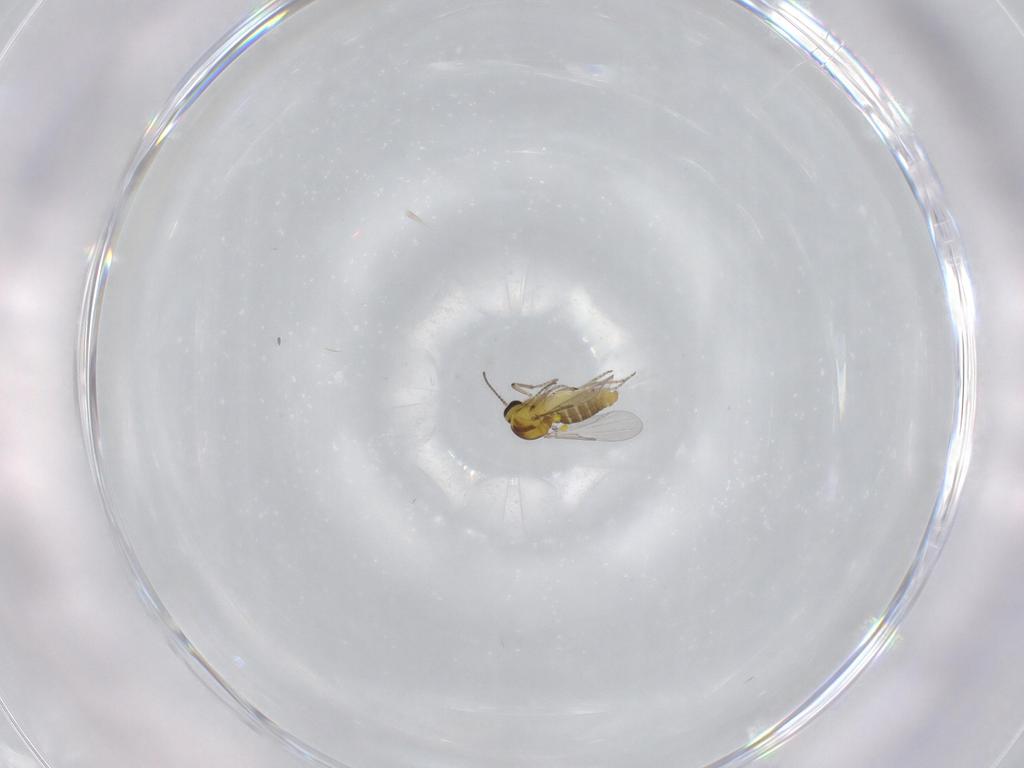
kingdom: Animalia
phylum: Arthropoda
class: Insecta
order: Diptera
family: Ceratopogonidae
